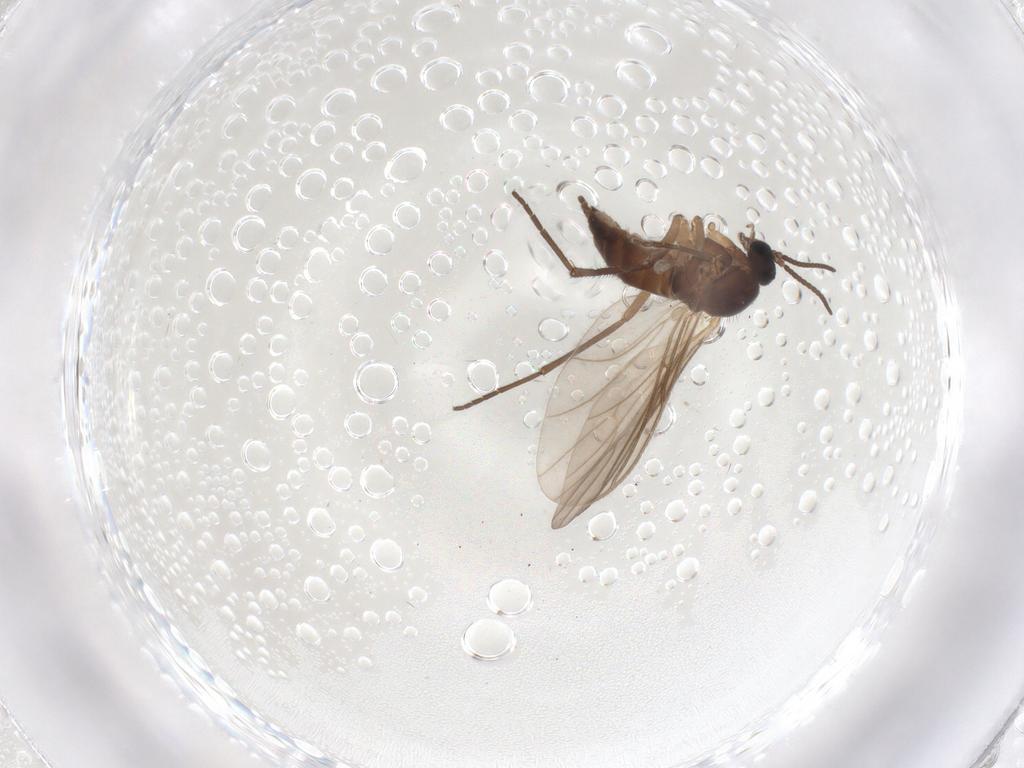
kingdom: Animalia
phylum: Arthropoda
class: Insecta
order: Diptera
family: Sciaridae
